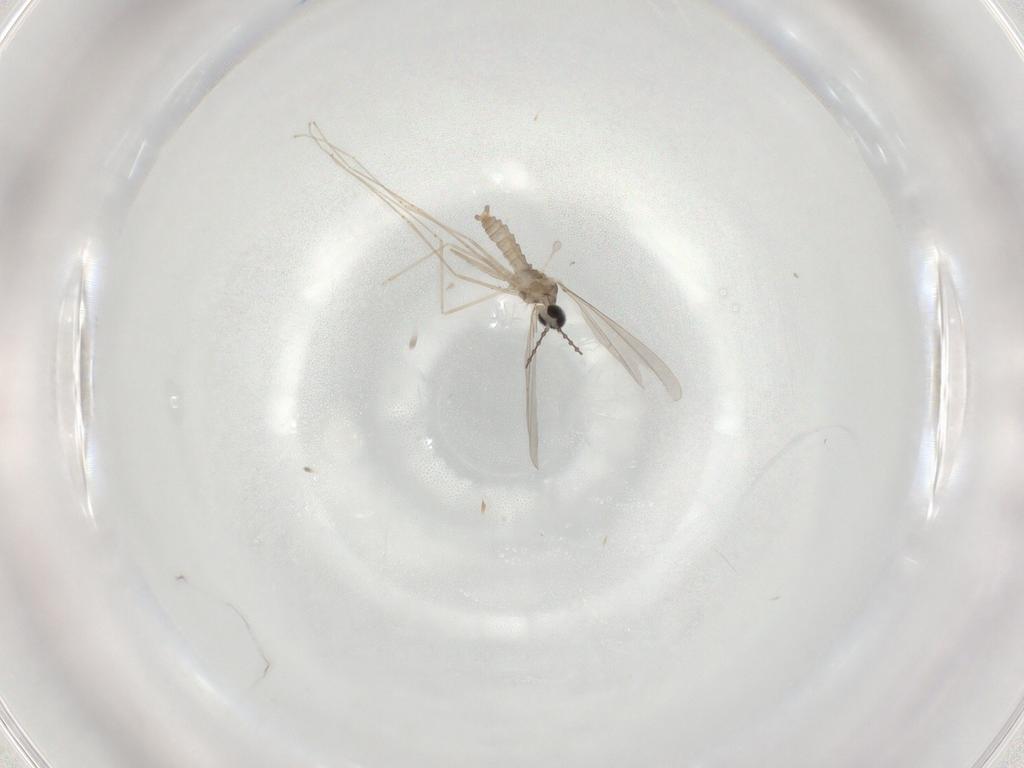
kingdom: Animalia
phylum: Arthropoda
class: Insecta
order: Diptera
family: Cecidomyiidae
